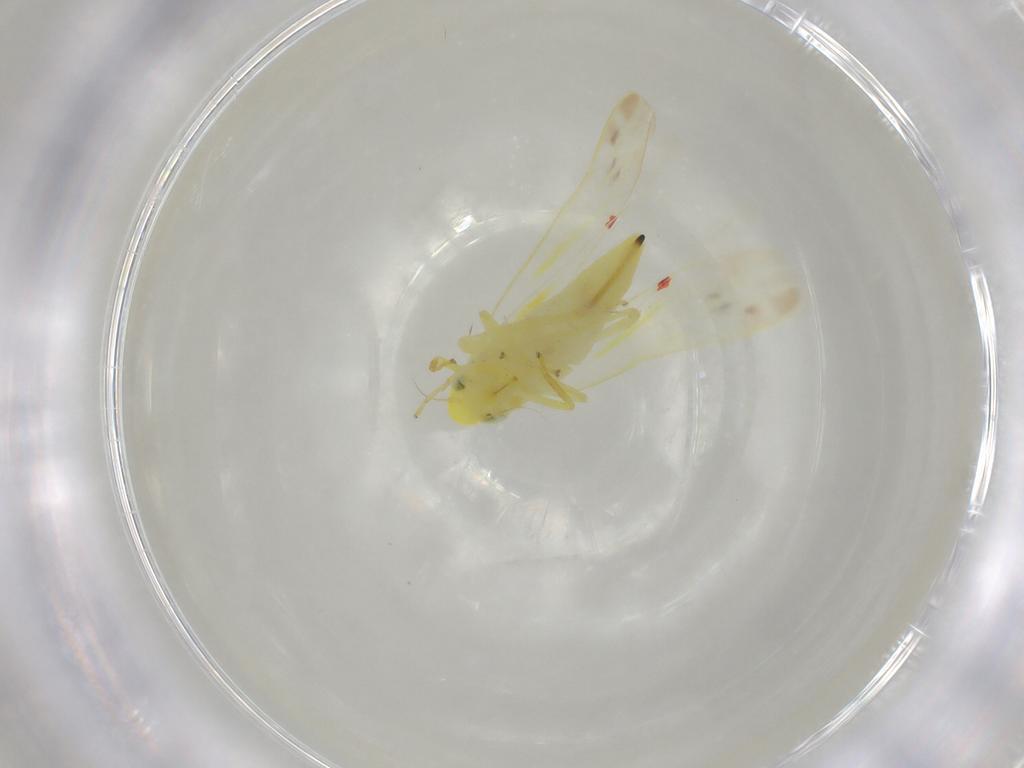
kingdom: Animalia
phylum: Arthropoda
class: Insecta
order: Hemiptera
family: Cicadellidae
